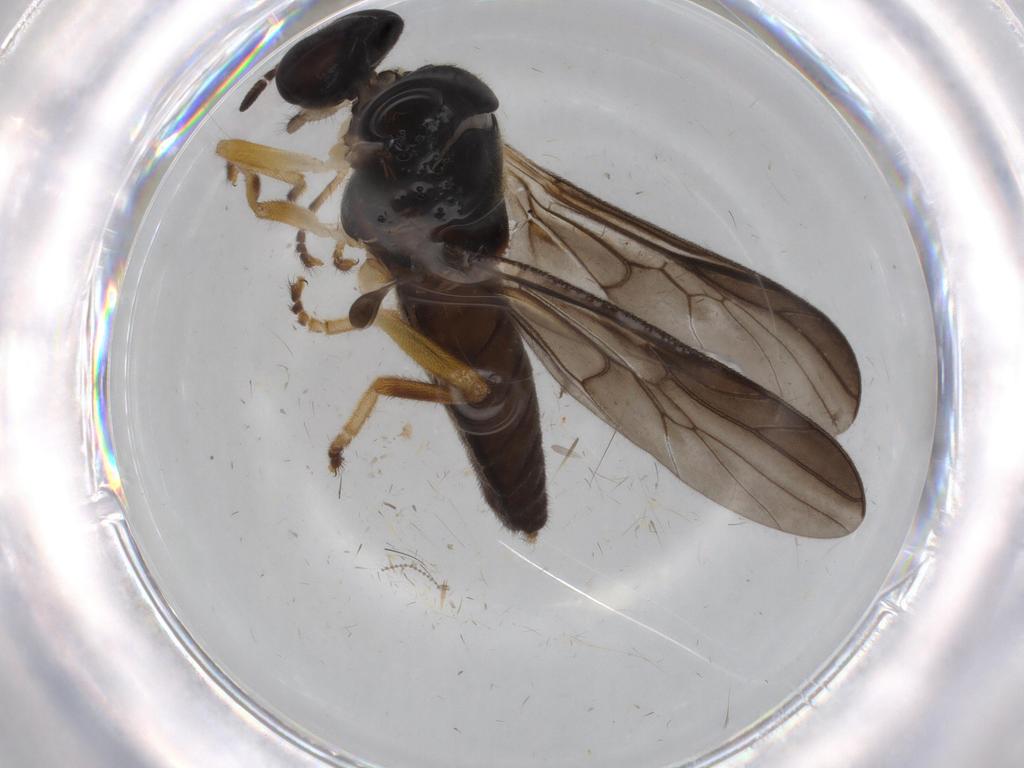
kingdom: Animalia
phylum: Arthropoda
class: Insecta
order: Diptera
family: Stratiomyidae
